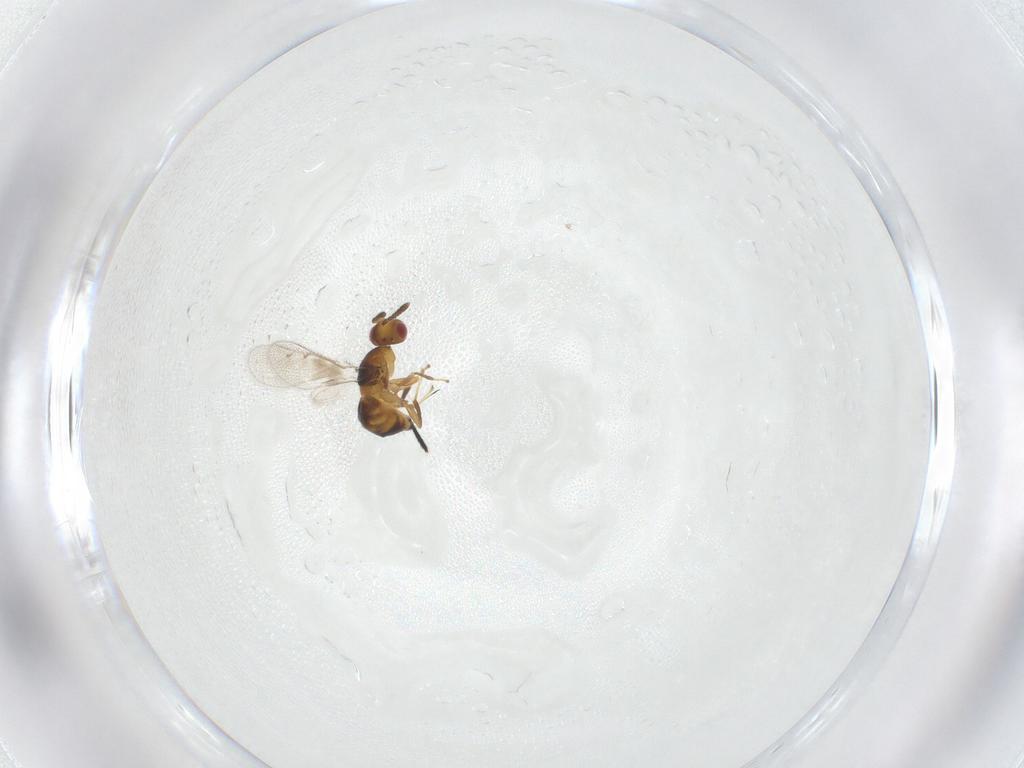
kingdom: Animalia
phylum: Arthropoda
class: Insecta
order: Hymenoptera
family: Torymidae
